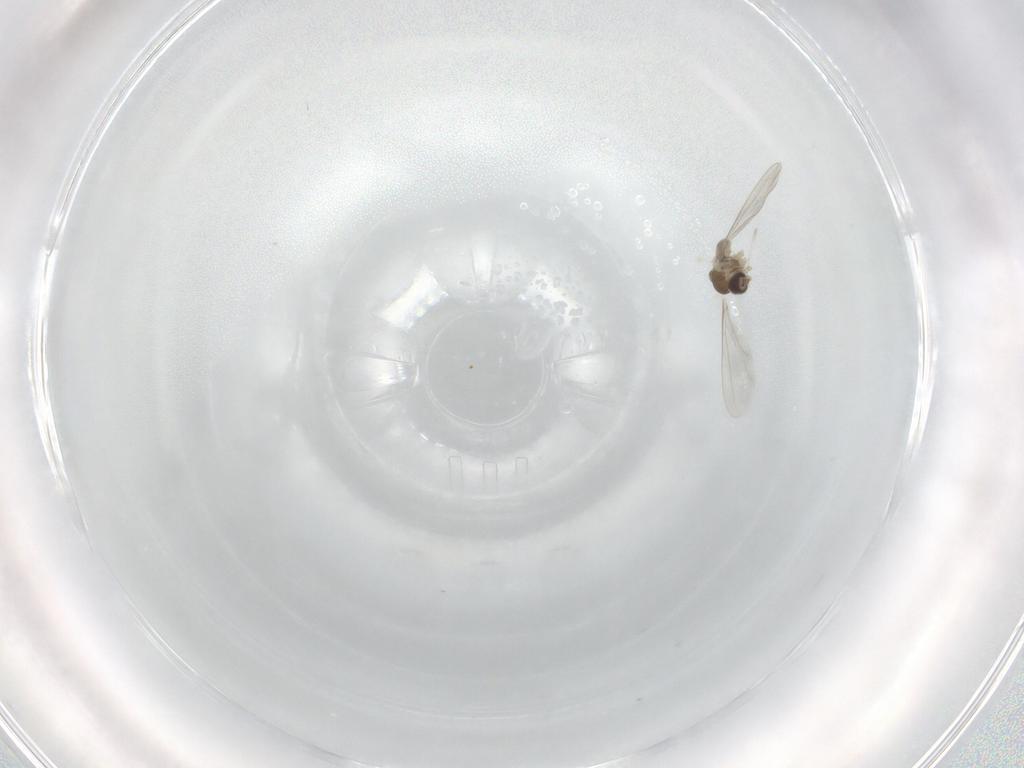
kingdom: Animalia
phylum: Arthropoda
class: Insecta
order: Diptera
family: Cecidomyiidae
